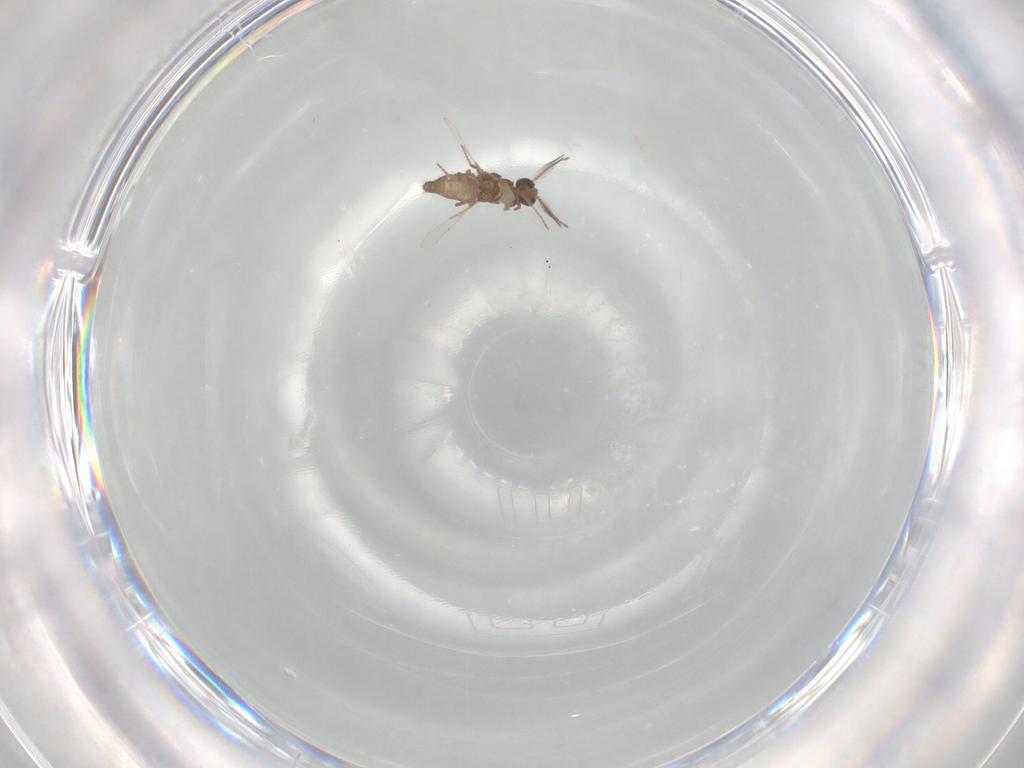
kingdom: Animalia
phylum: Arthropoda
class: Insecta
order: Diptera
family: Ceratopogonidae
